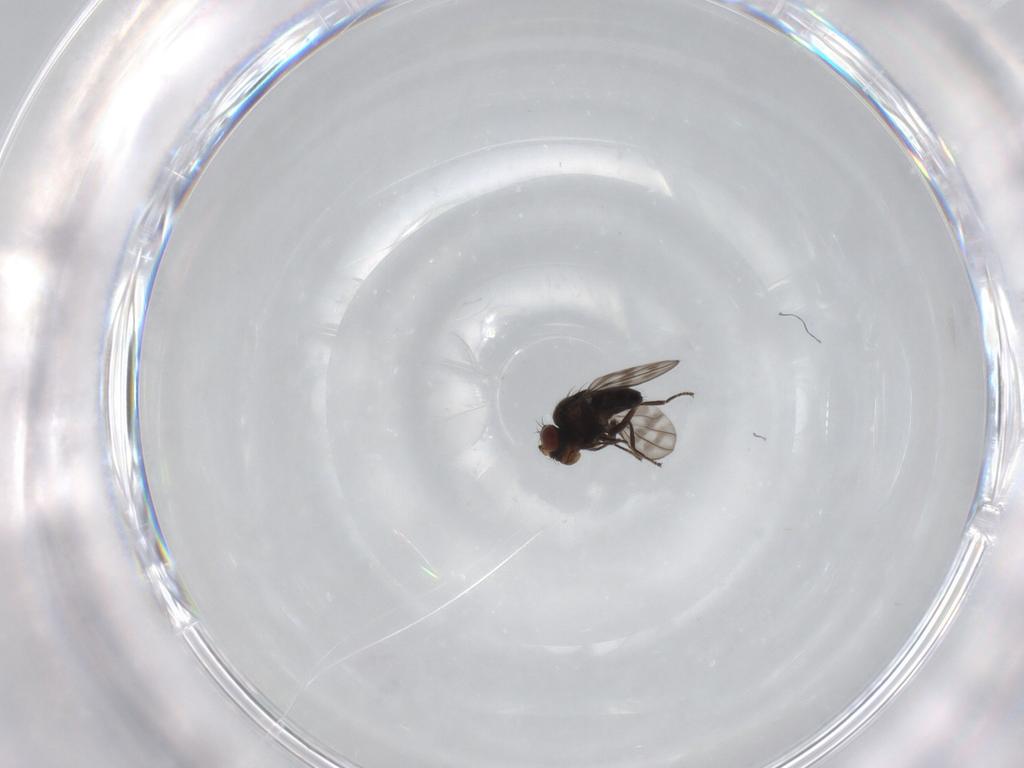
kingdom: Animalia
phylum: Arthropoda
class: Insecta
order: Diptera
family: Ephydridae
